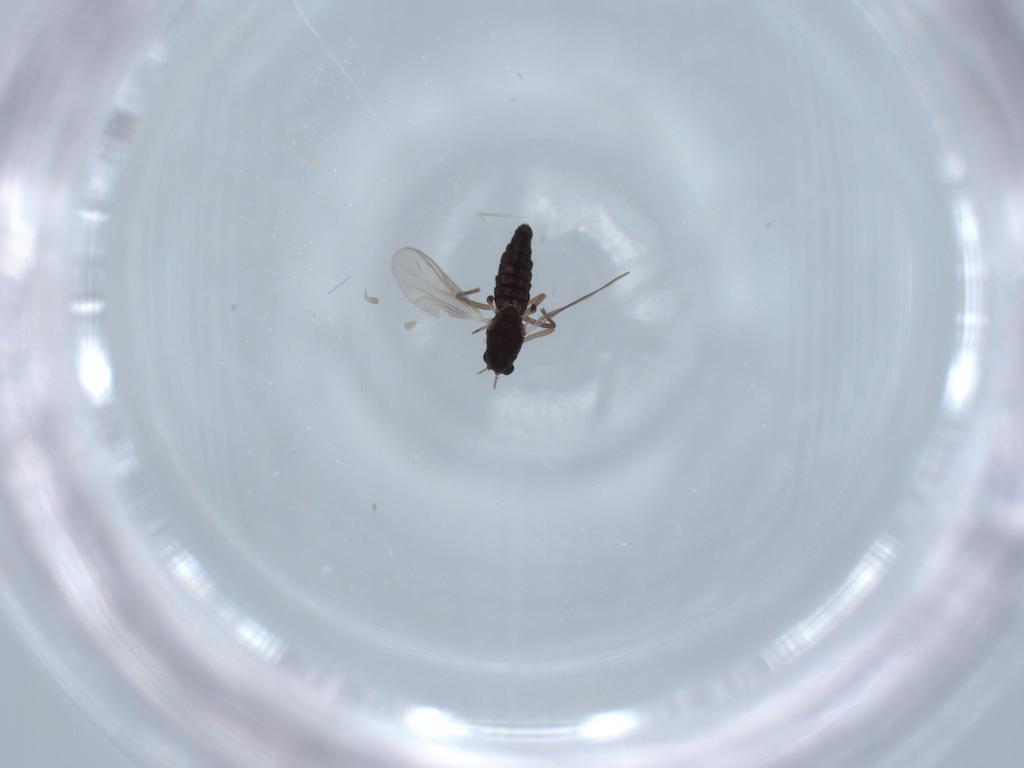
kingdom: Animalia
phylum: Arthropoda
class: Insecta
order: Diptera
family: Chironomidae
